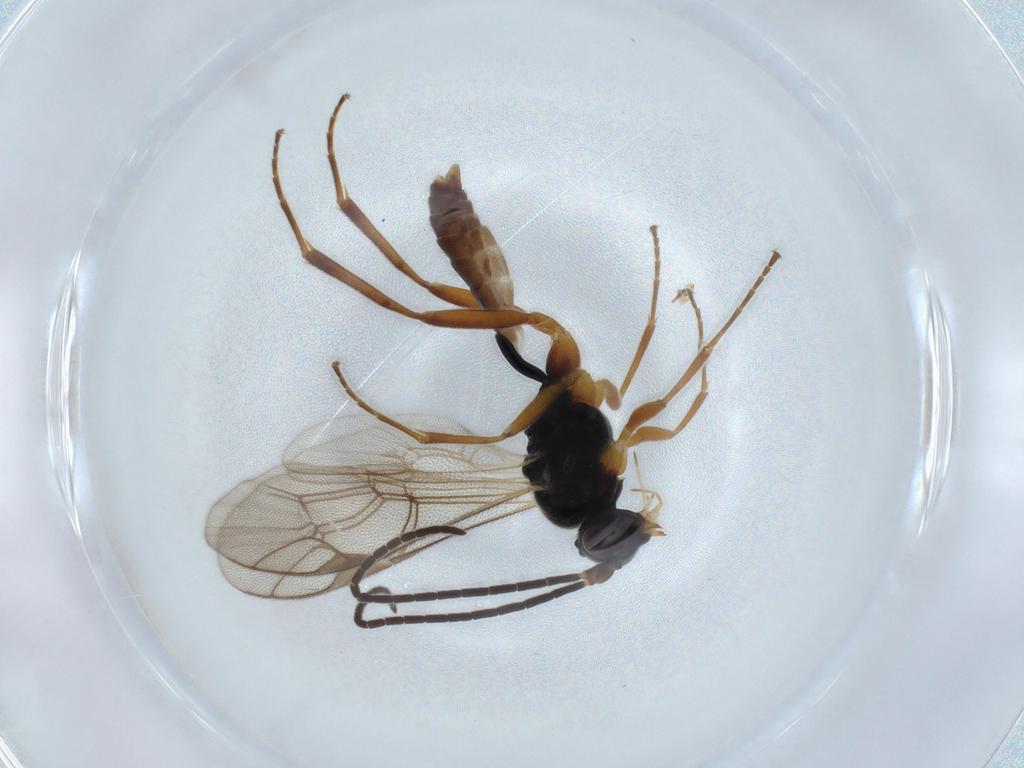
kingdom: Animalia
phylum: Arthropoda
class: Insecta
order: Hymenoptera
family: Ichneumonidae
